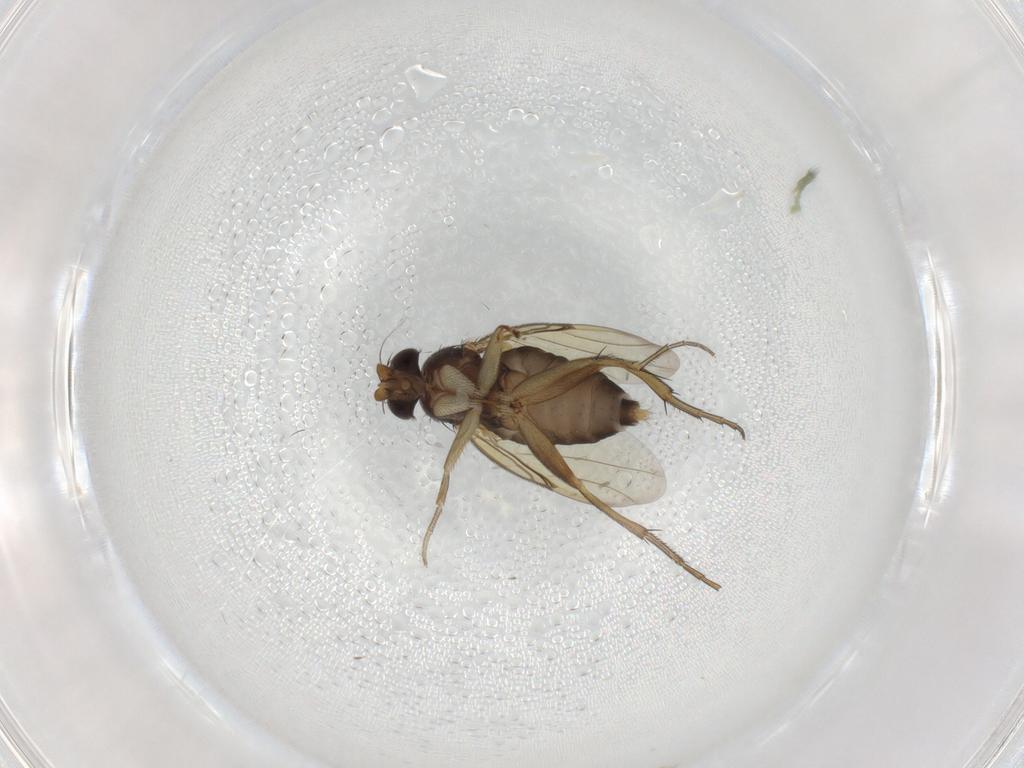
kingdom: Animalia
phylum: Arthropoda
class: Insecta
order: Diptera
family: Phoridae
